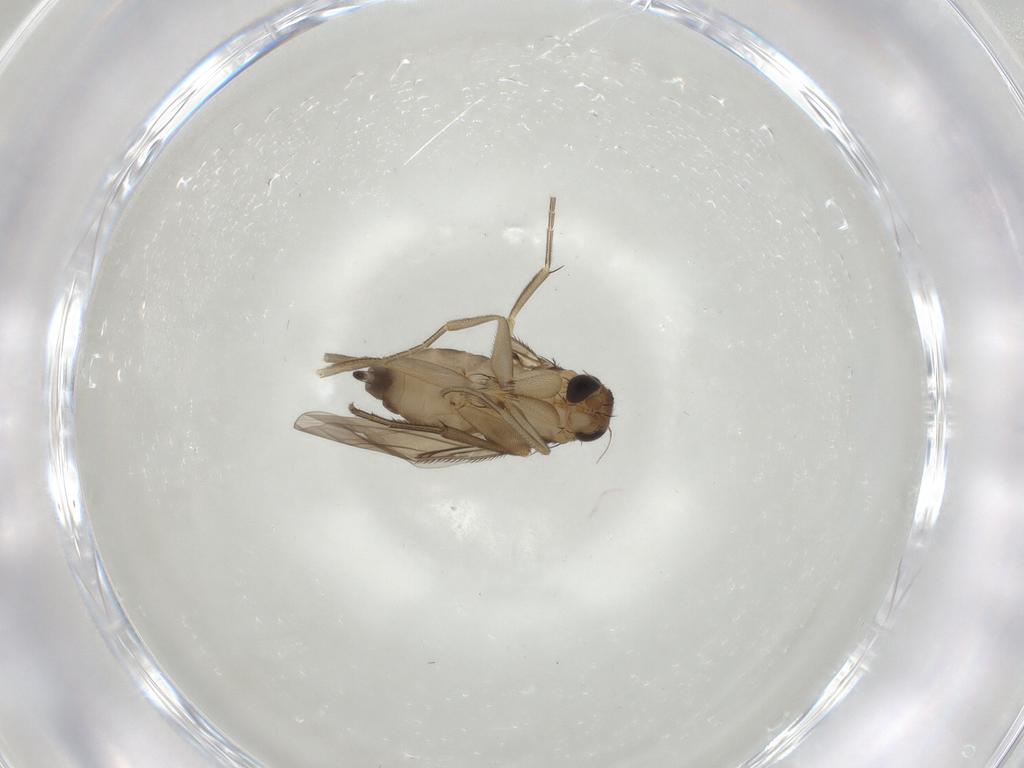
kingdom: Animalia
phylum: Arthropoda
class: Insecta
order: Diptera
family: Phoridae
